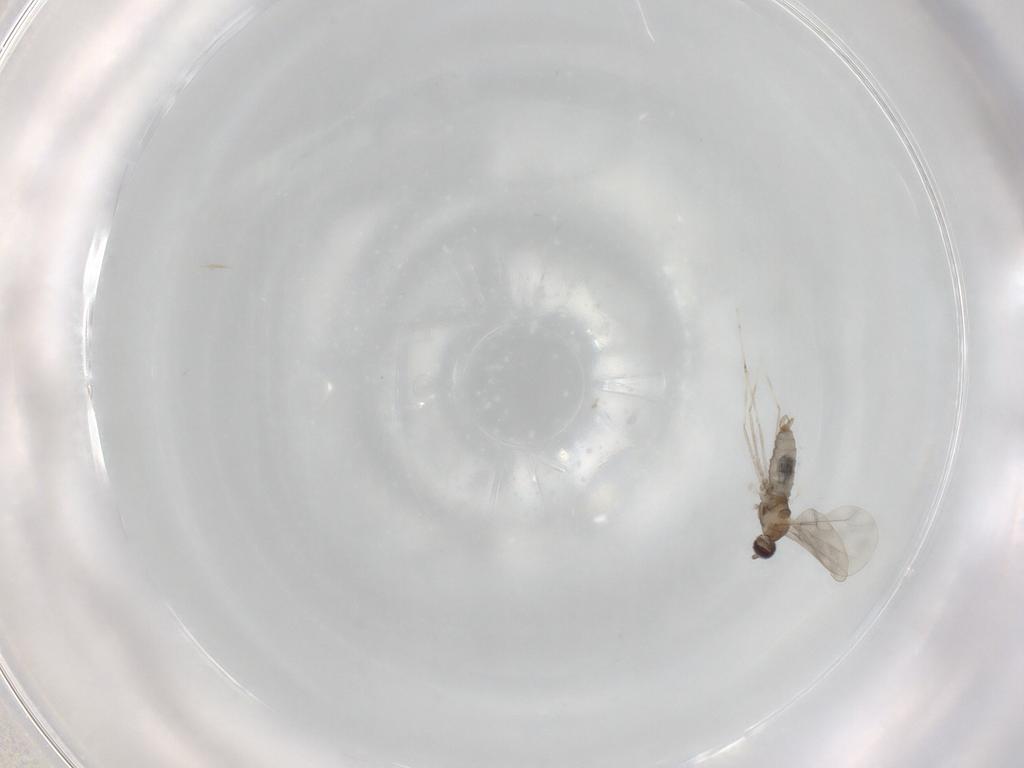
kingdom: Animalia
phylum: Arthropoda
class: Insecta
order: Diptera
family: Cecidomyiidae
